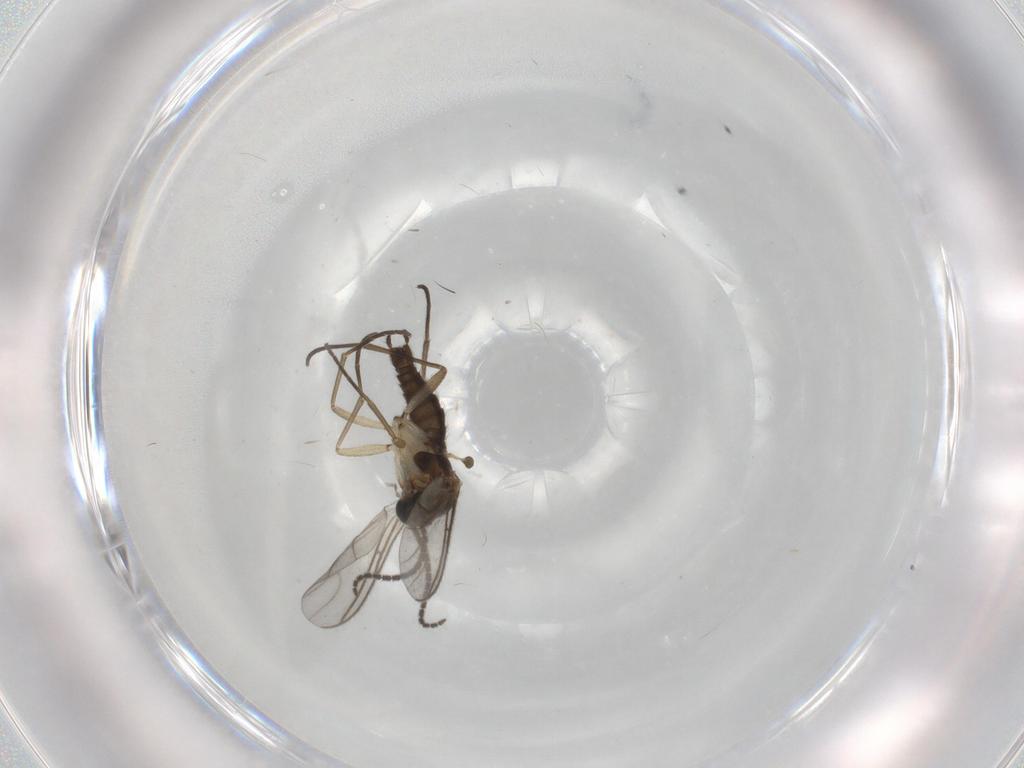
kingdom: Animalia
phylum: Arthropoda
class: Insecta
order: Diptera
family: Sciaridae
